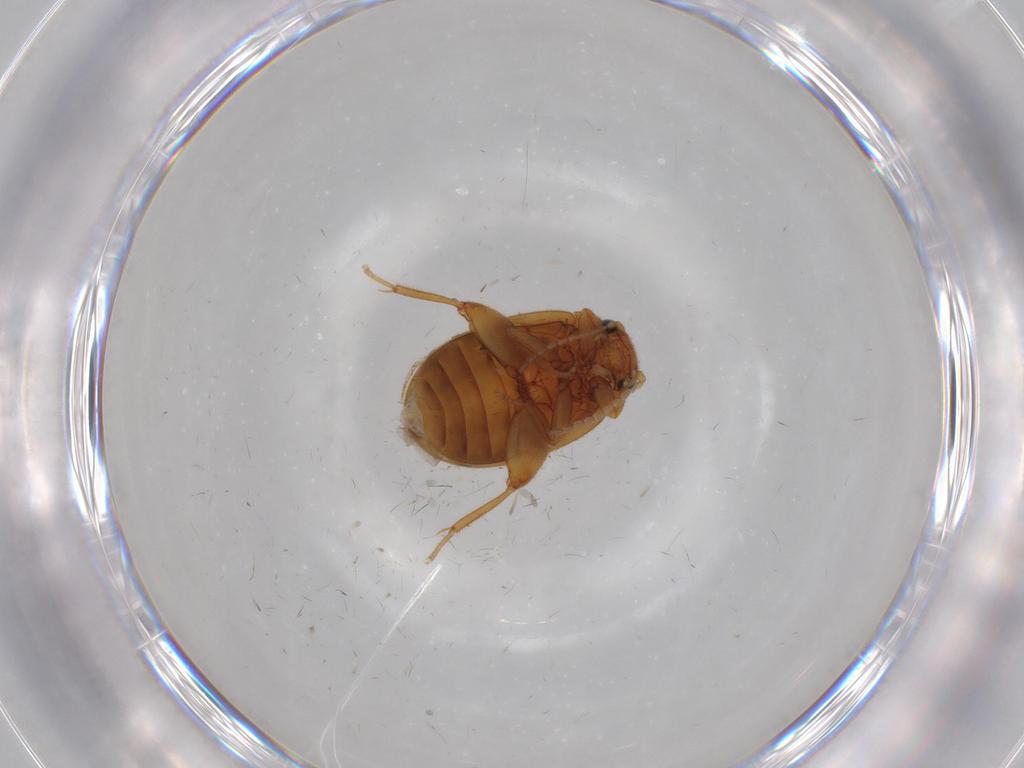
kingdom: Animalia
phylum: Arthropoda
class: Insecta
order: Coleoptera
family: Scirtidae
